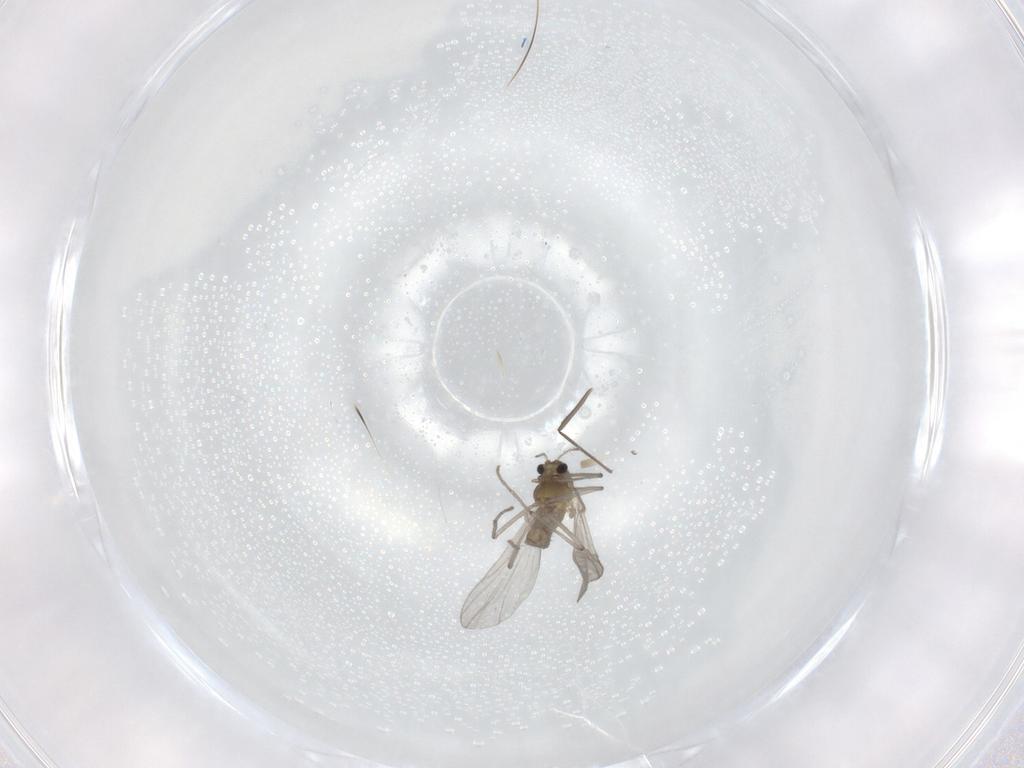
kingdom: Animalia
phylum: Arthropoda
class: Insecta
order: Diptera
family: Chironomidae
